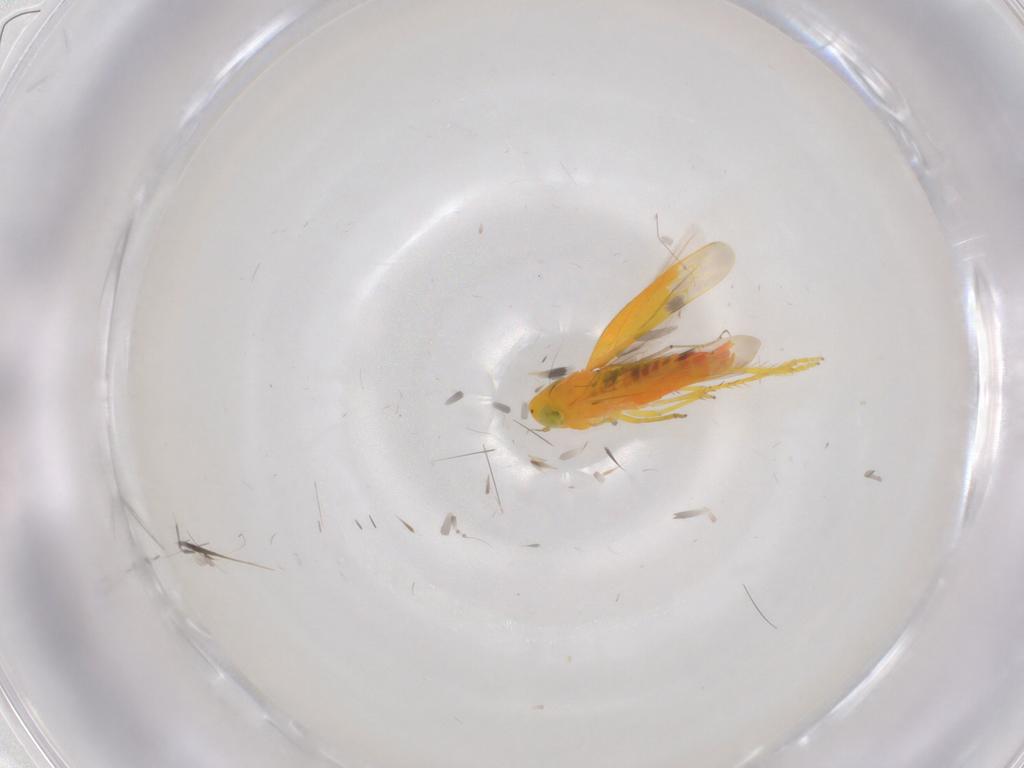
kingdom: Animalia
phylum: Arthropoda
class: Insecta
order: Hemiptera
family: Cicadellidae
